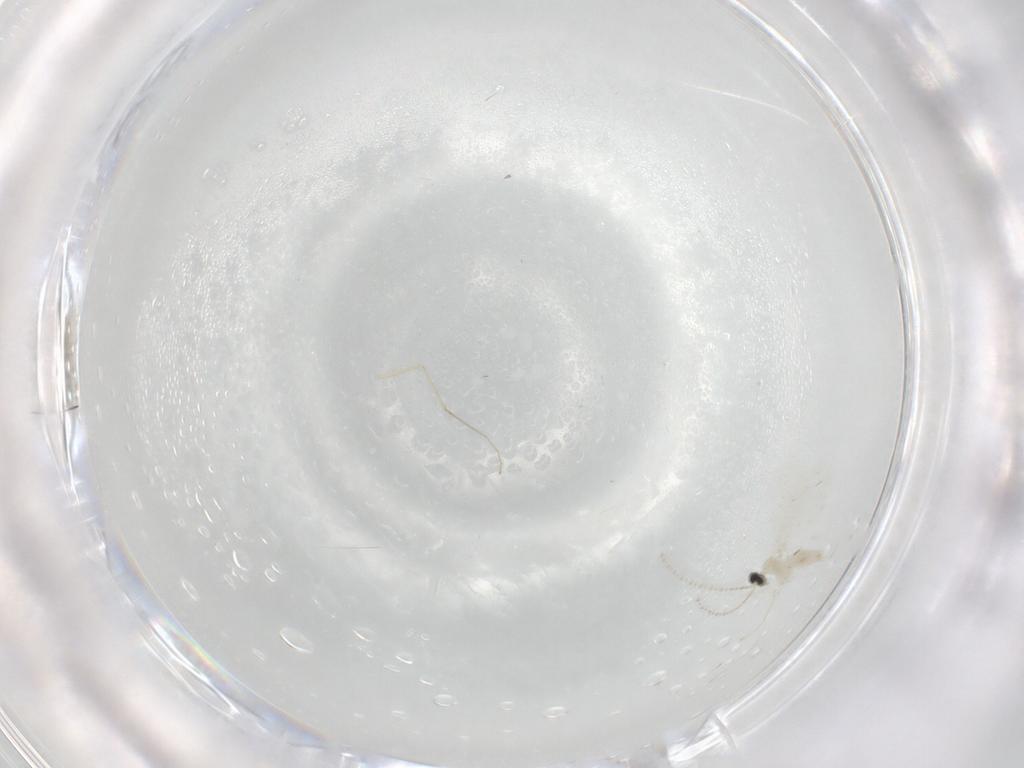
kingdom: Animalia
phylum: Arthropoda
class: Insecta
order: Diptera
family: Cecidomyiidae
